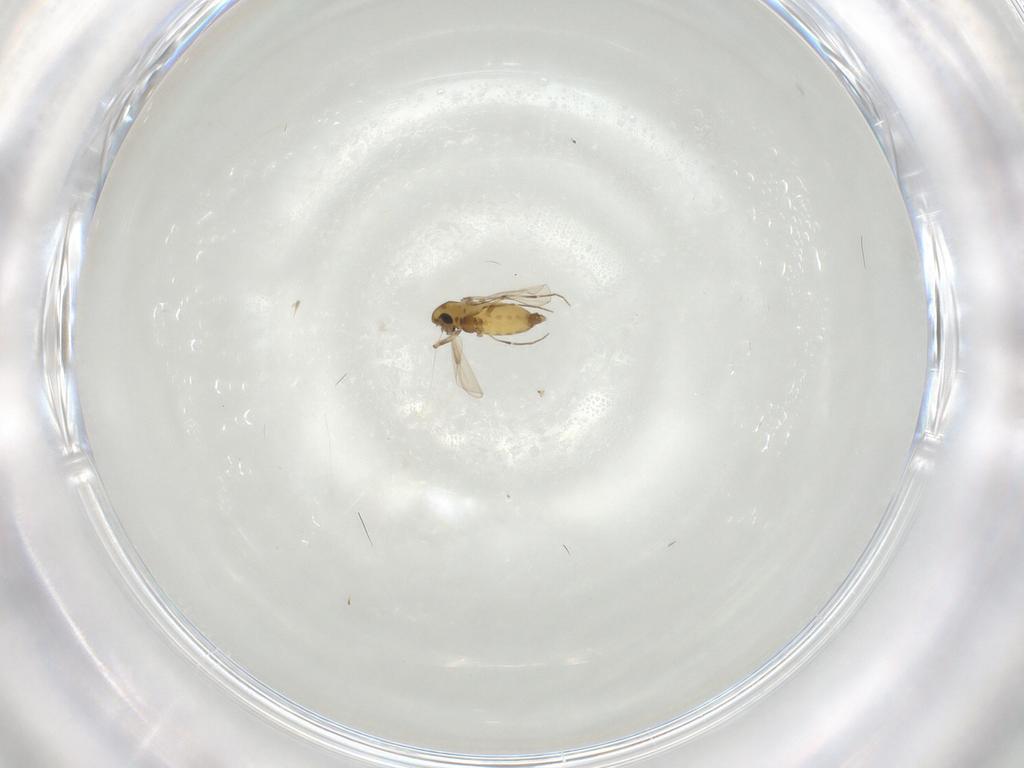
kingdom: Animalia
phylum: Arthropoda
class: Insecta
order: Diptera
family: Chironomidae
